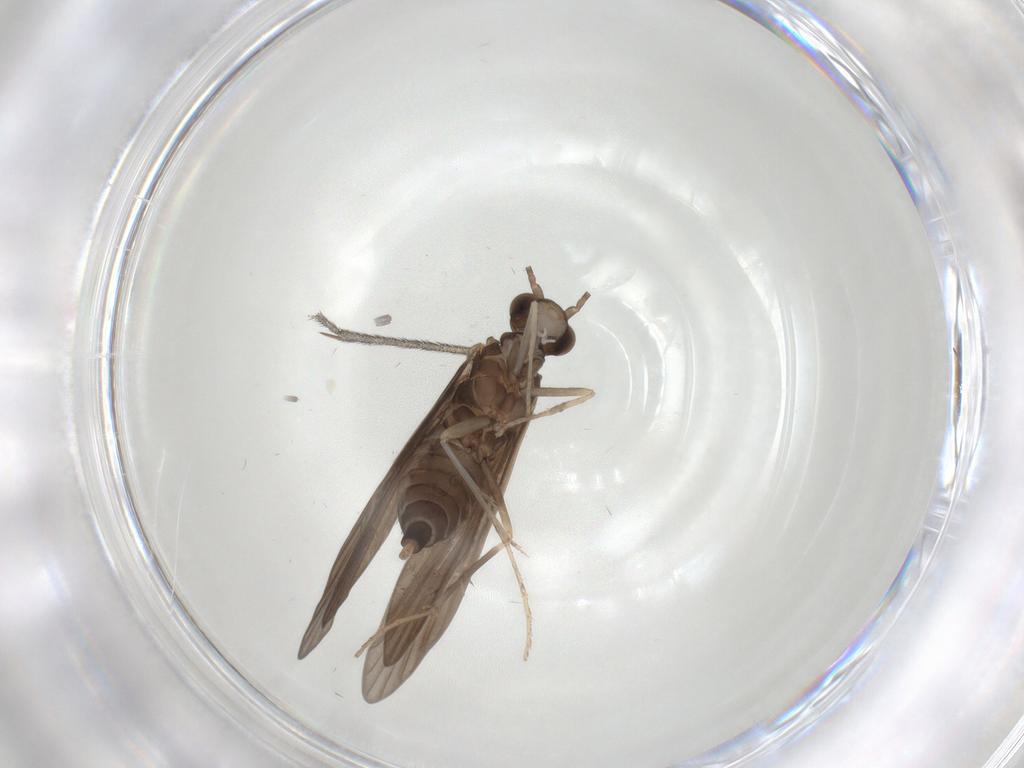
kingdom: Animalia
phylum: Arthropoda
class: Insecta
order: Trichoptera
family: Xiphocentronidae
